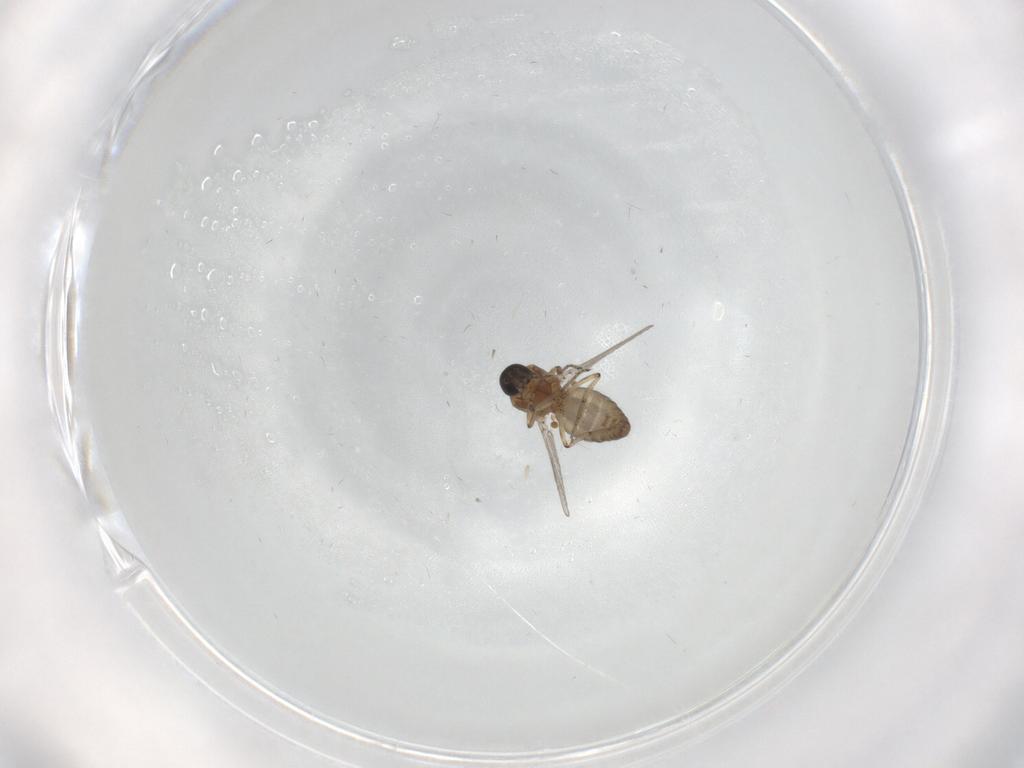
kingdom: Animalia
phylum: Arthropoda
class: Insecta
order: Diptera
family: Ceratopogonidae
